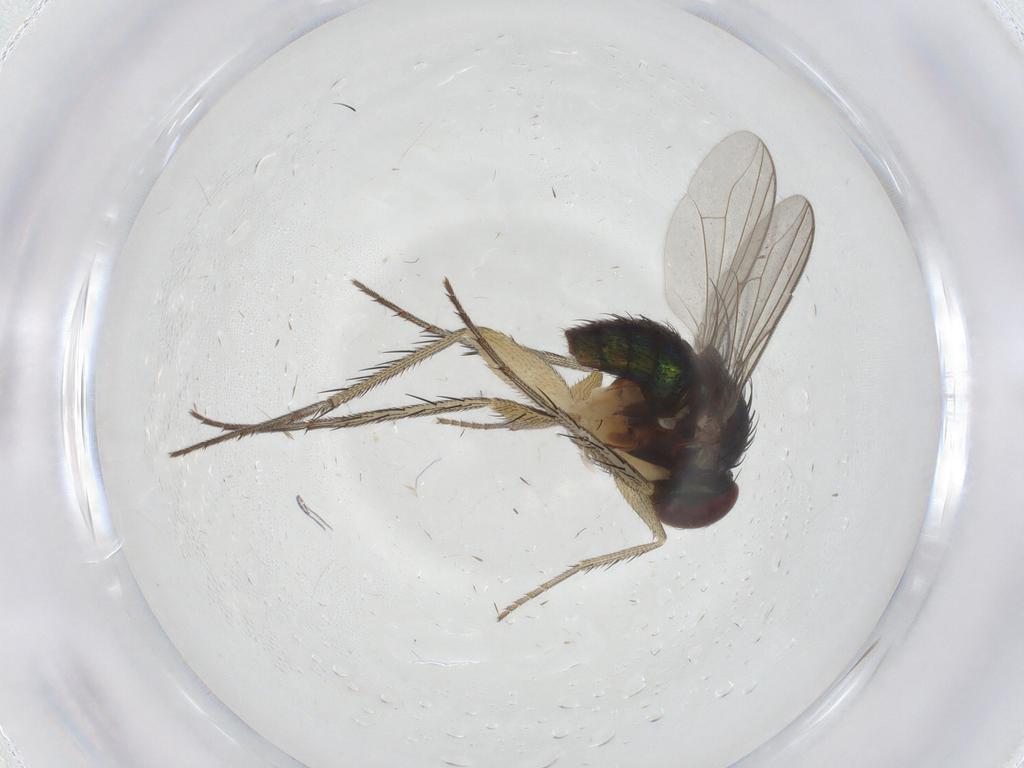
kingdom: Animalia
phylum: Arthropoda
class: Insecta
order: Diptera
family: Dolichopodidae
